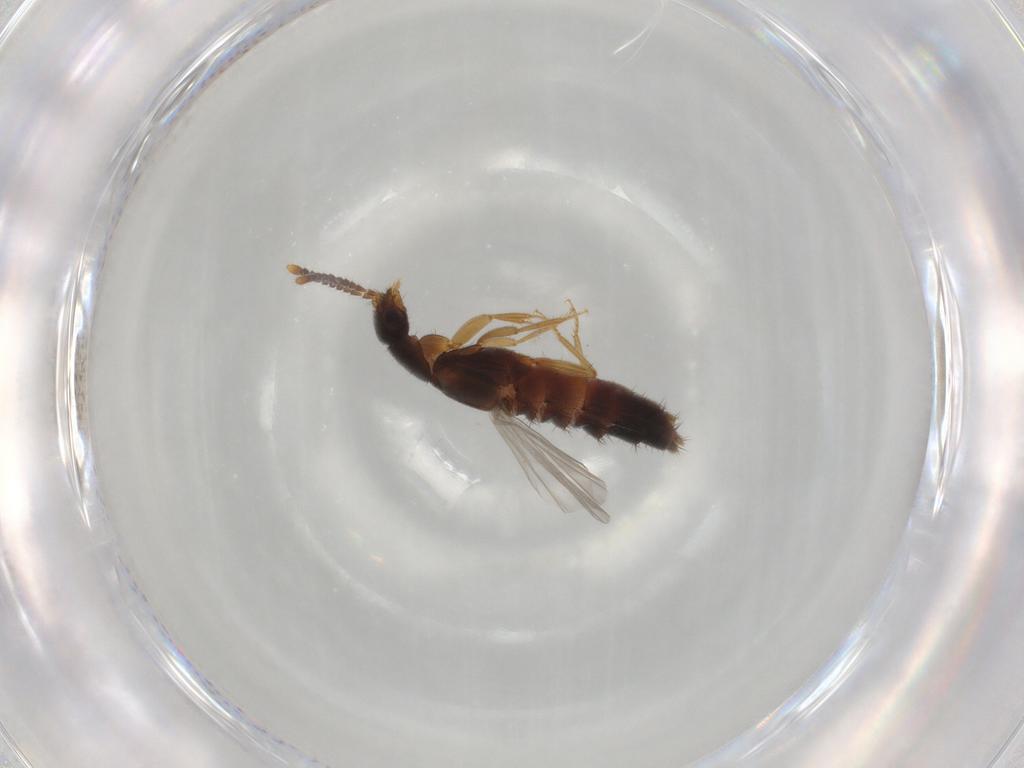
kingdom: Animalia
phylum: Arthropoda
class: Insecta
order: Coleoptera
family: Staphylinidae
